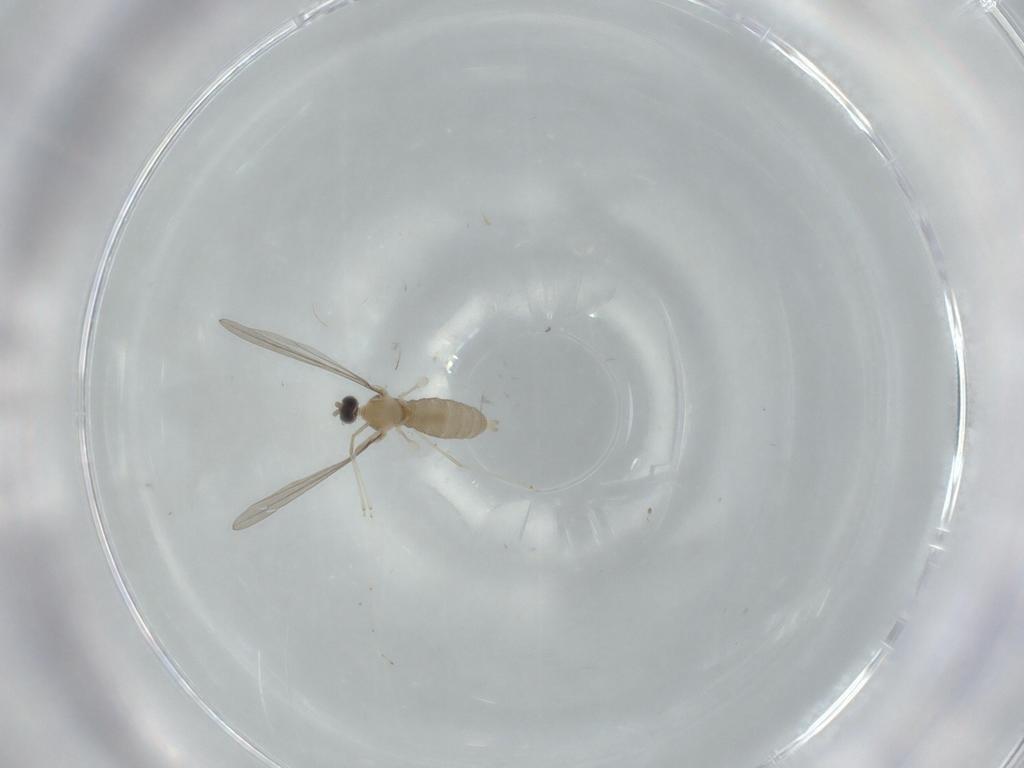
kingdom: Animalia
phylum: Arthropoda
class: Insecta
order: Diptera
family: Cecidomyiidae
